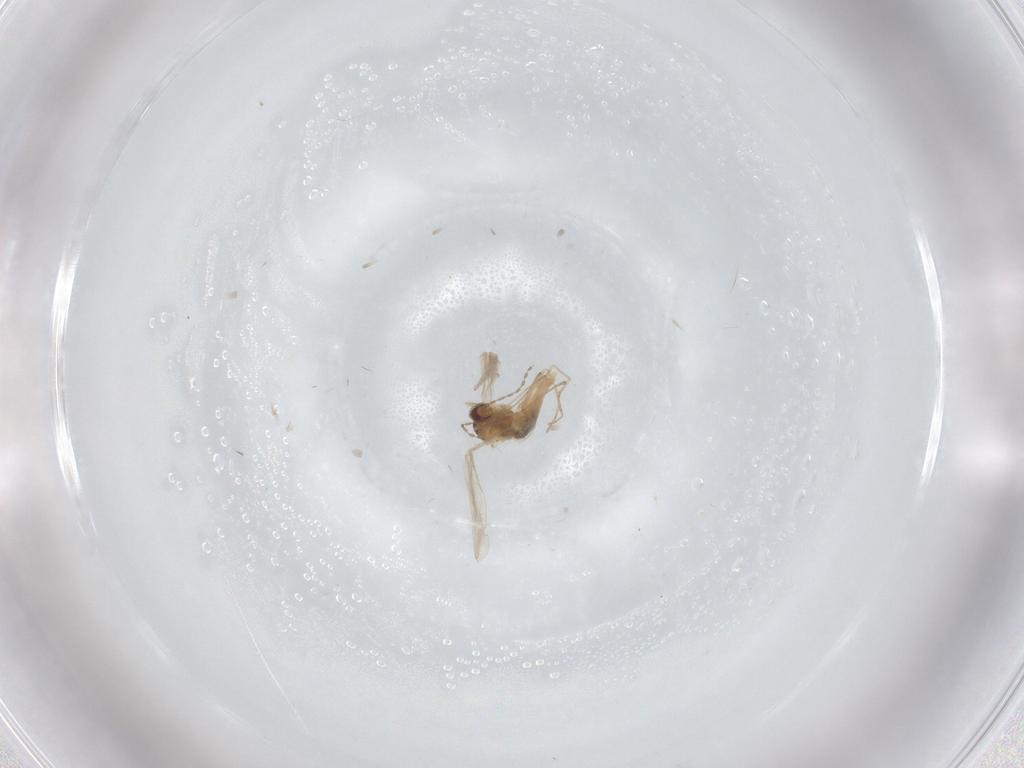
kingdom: Animalia
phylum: Arthropoda
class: Insecta
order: Diptera
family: Cecidomyiidae
